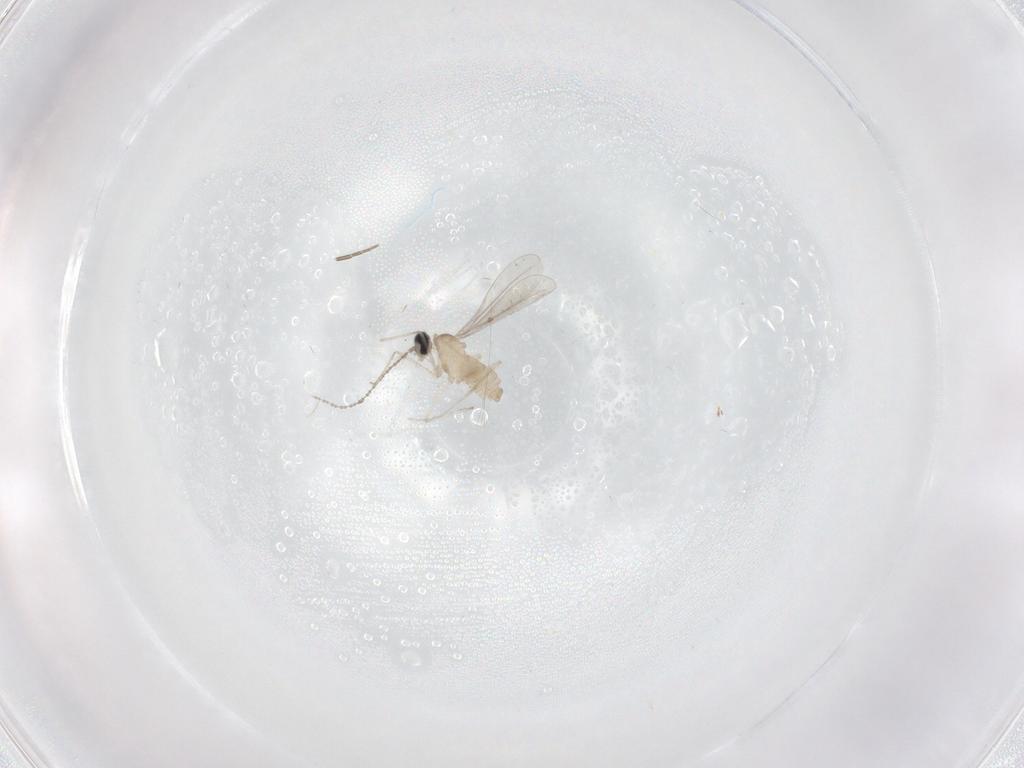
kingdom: Animalia
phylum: Arthropoda
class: Insecta
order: Diptera
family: Cecidomyiidae
